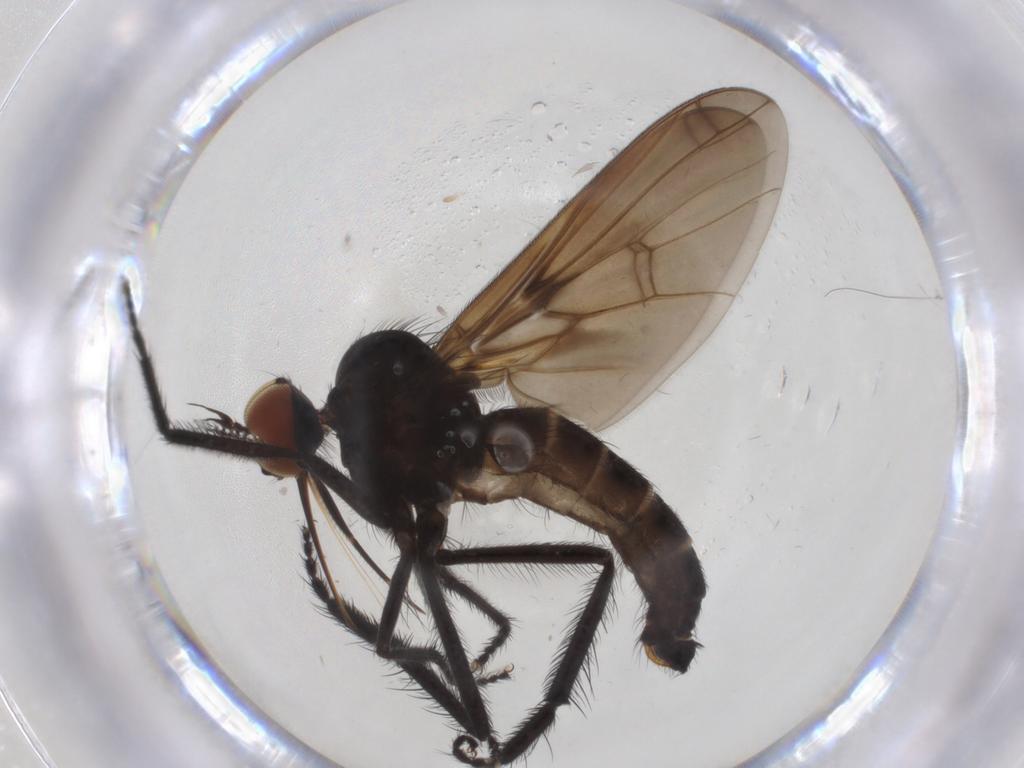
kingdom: Animalia
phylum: Arthropoda
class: Insecta
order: Diptera
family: Empididae
